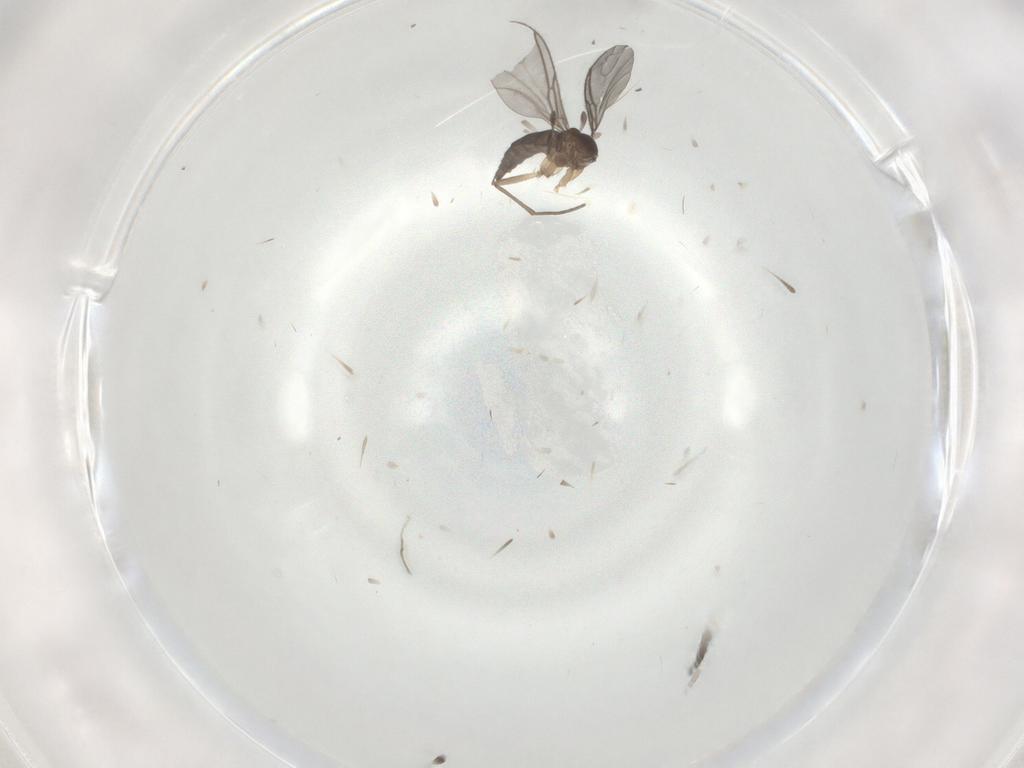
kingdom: Animalia
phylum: Arthropoda
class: Insecta
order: Diptera
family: Sciaridae
